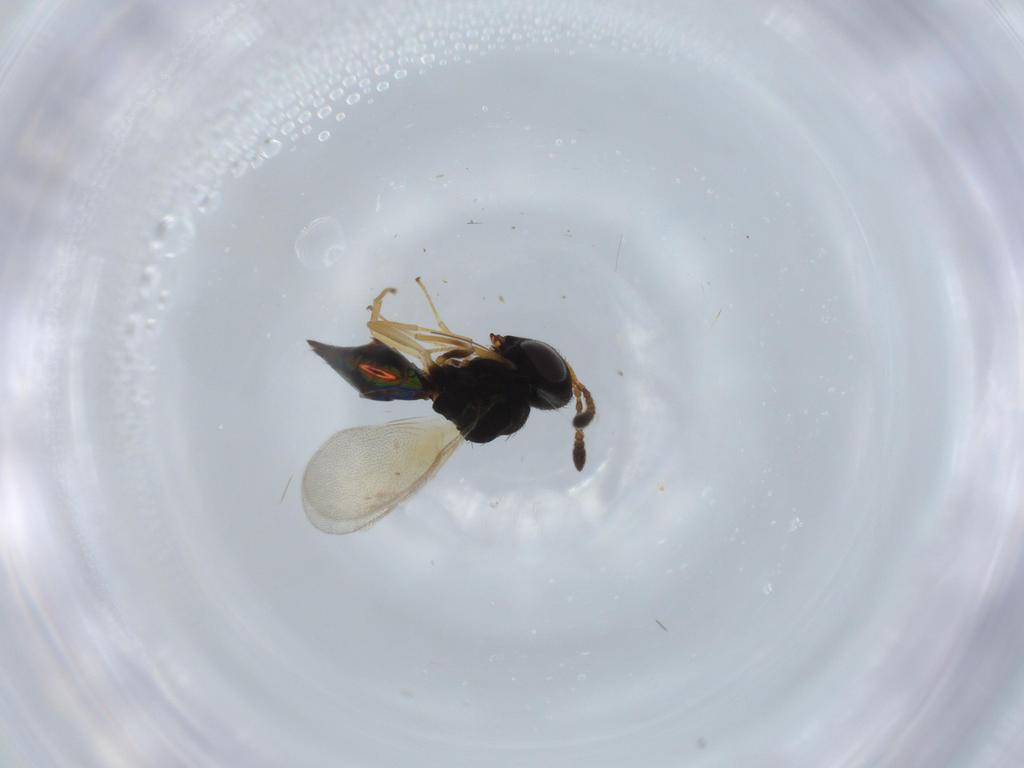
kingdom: Animalia
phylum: Arthropoda
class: Insecta
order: Hymenoptera
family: Pteromalidae
